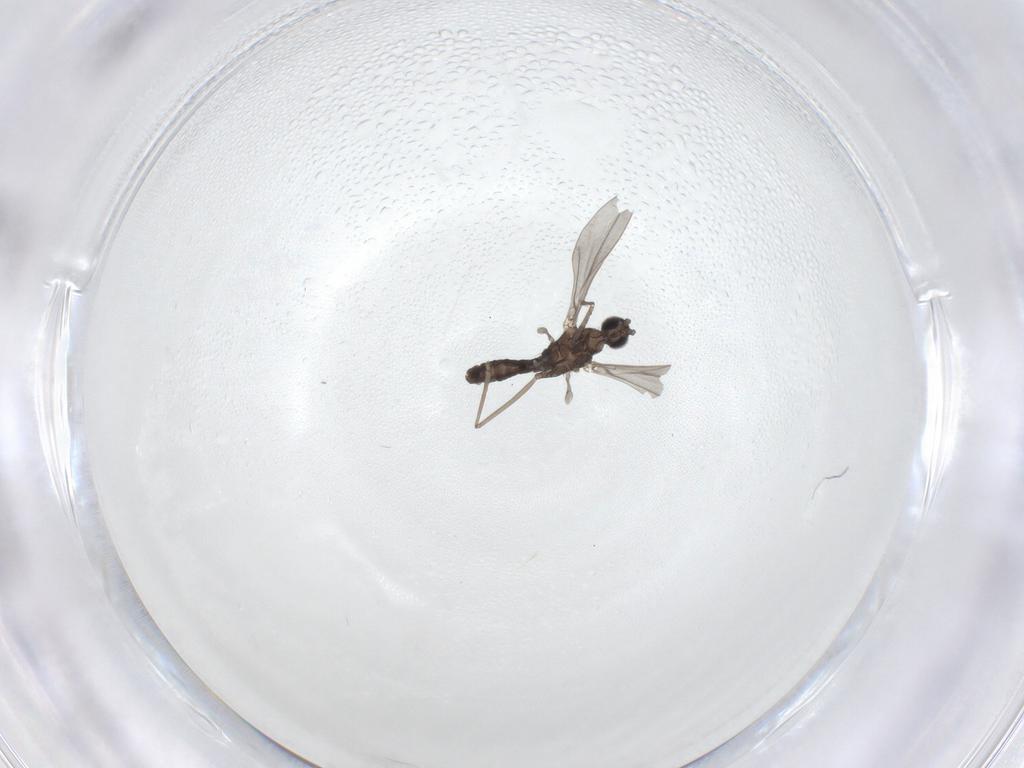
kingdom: Animalia
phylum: Arthropoda
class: Insecta
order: Diptera
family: Cecidomyiidae
